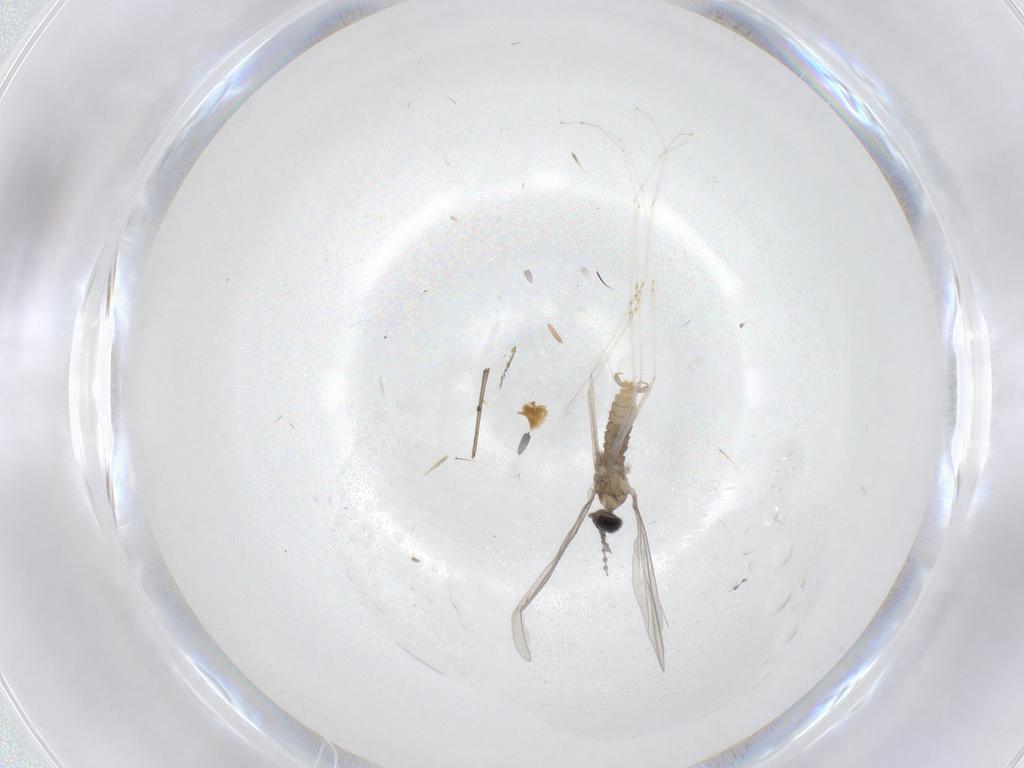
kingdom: Animalia
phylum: Arthropoda
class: Insecta
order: Diptera
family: Cecidomyiidae
